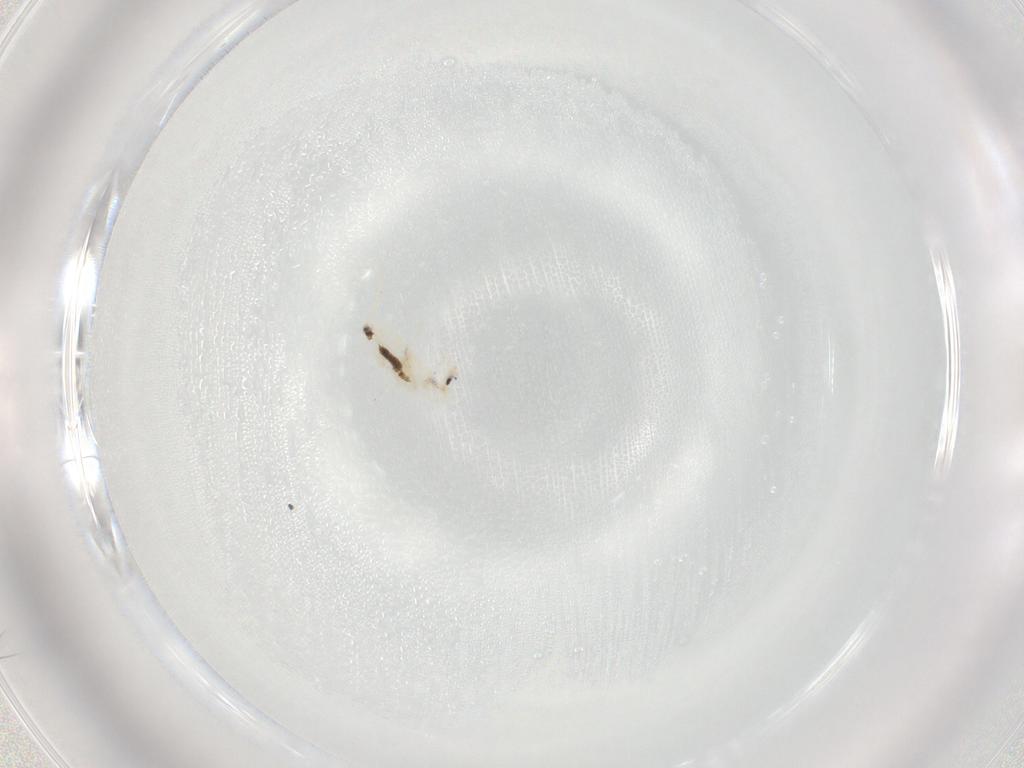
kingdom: Animalia
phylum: Arthropoda
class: Collembola
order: Entomobryomorpha
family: Entomobryidae
